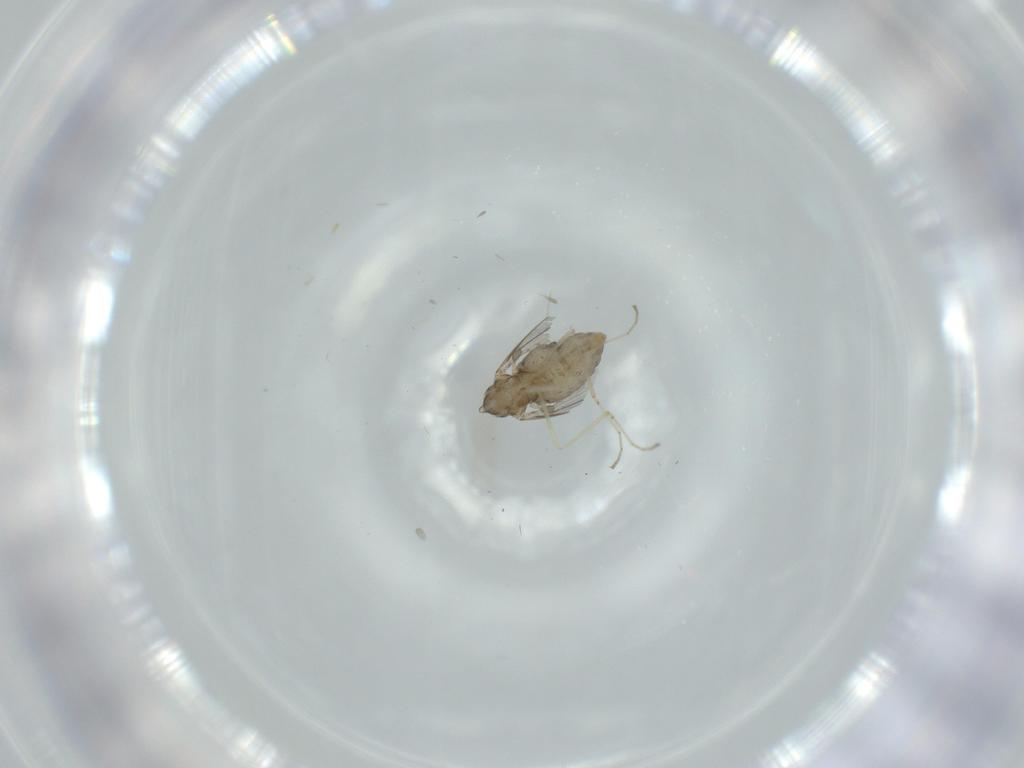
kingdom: Animalia
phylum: Arthropoda
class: Insecta
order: Diptera
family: Cecidomyiidae
